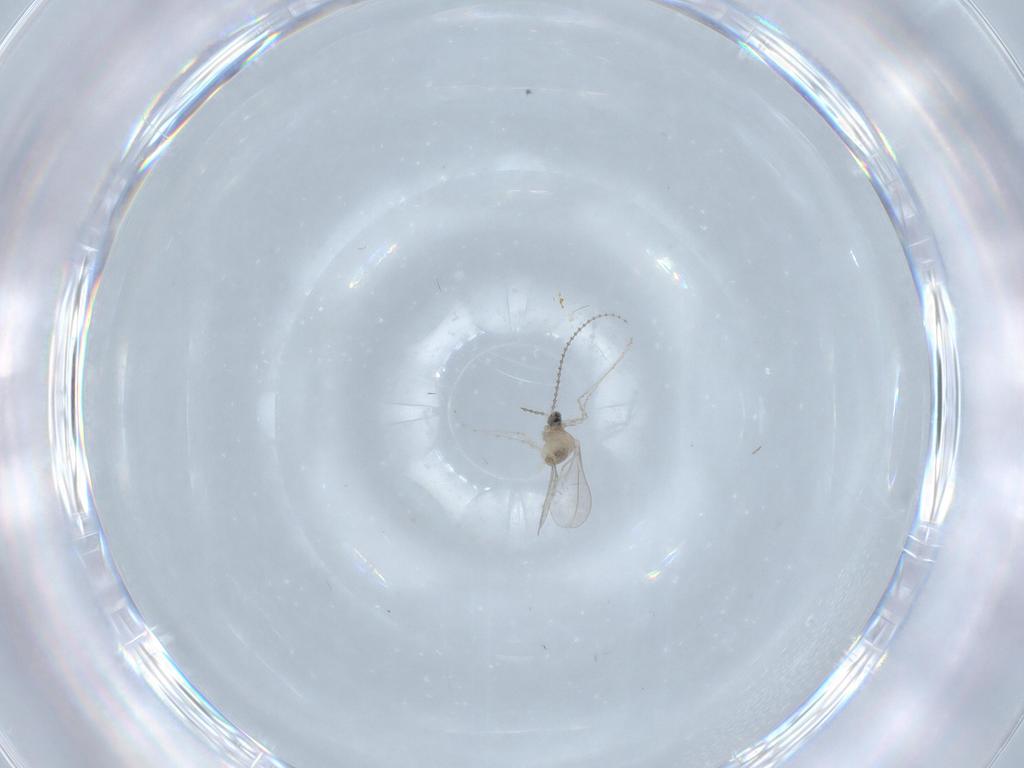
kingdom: Animalia
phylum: Arthropoda
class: Insecta
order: Diptera
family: Cecidomyiidae
